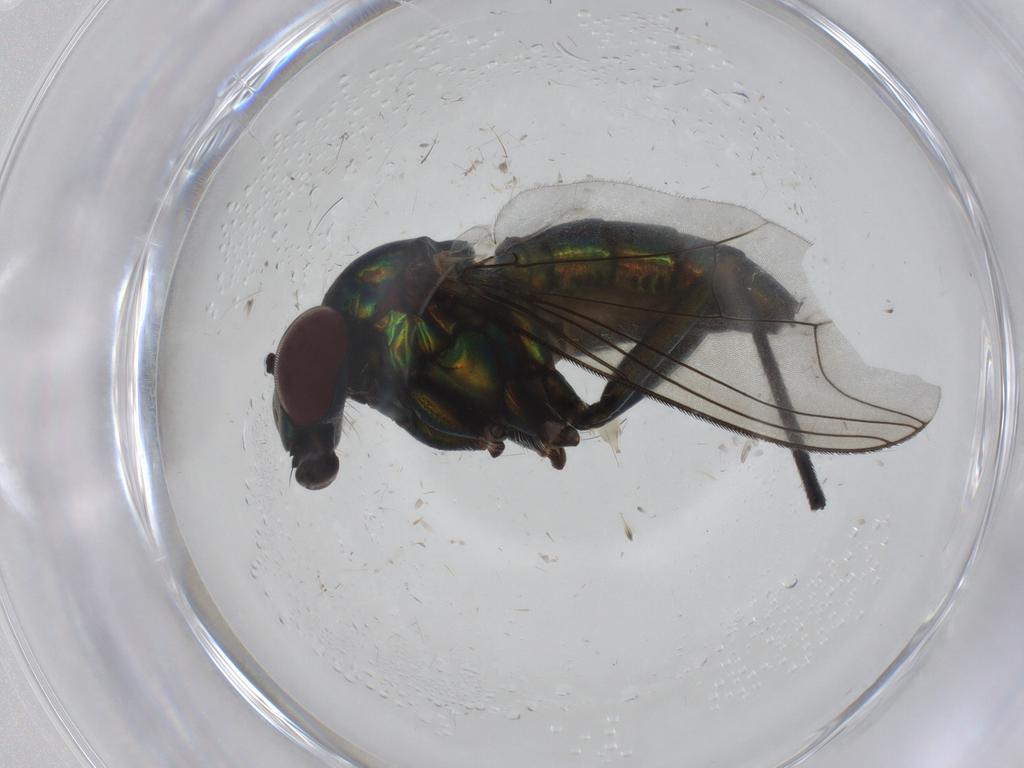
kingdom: Animalia
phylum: Arthropoda
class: Insecta
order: Diptera
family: Dolichopodidae
